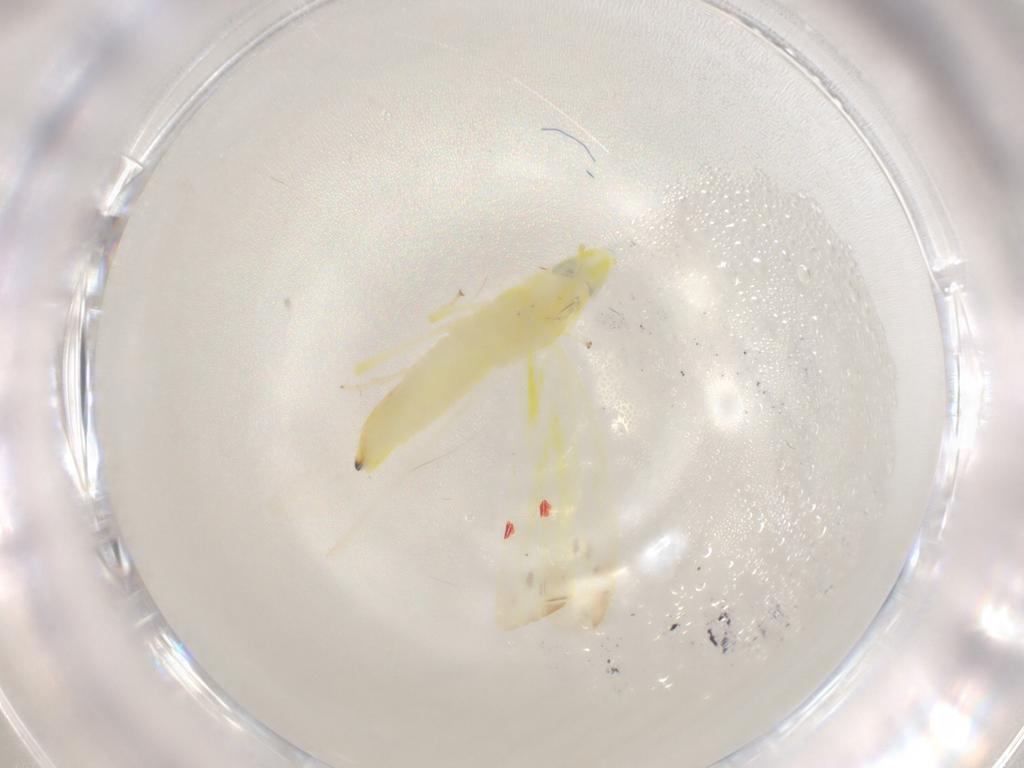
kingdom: Animalia
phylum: Arthropoda
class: Insecta
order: Hemiptera
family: Cicadellidae
